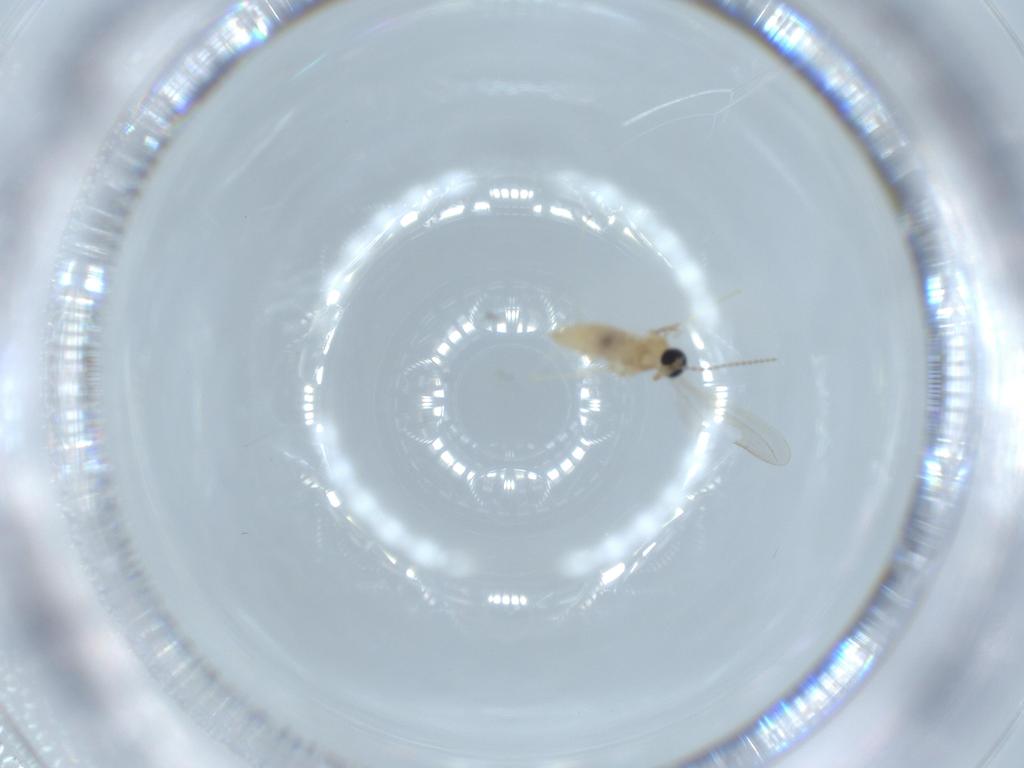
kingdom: Animalia
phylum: Arthropoda
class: Insecta
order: Diptera
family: Cecidomyiidae
